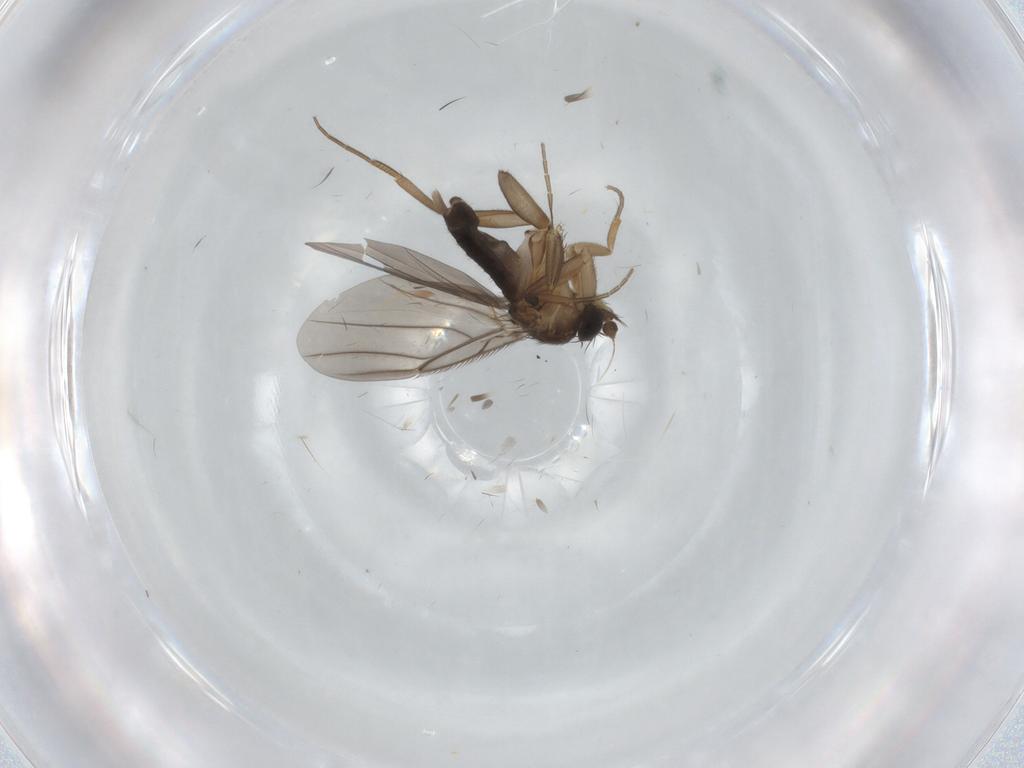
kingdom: Animalia
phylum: Arthropoda
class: Insecta
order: Diptera
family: Phoridae
